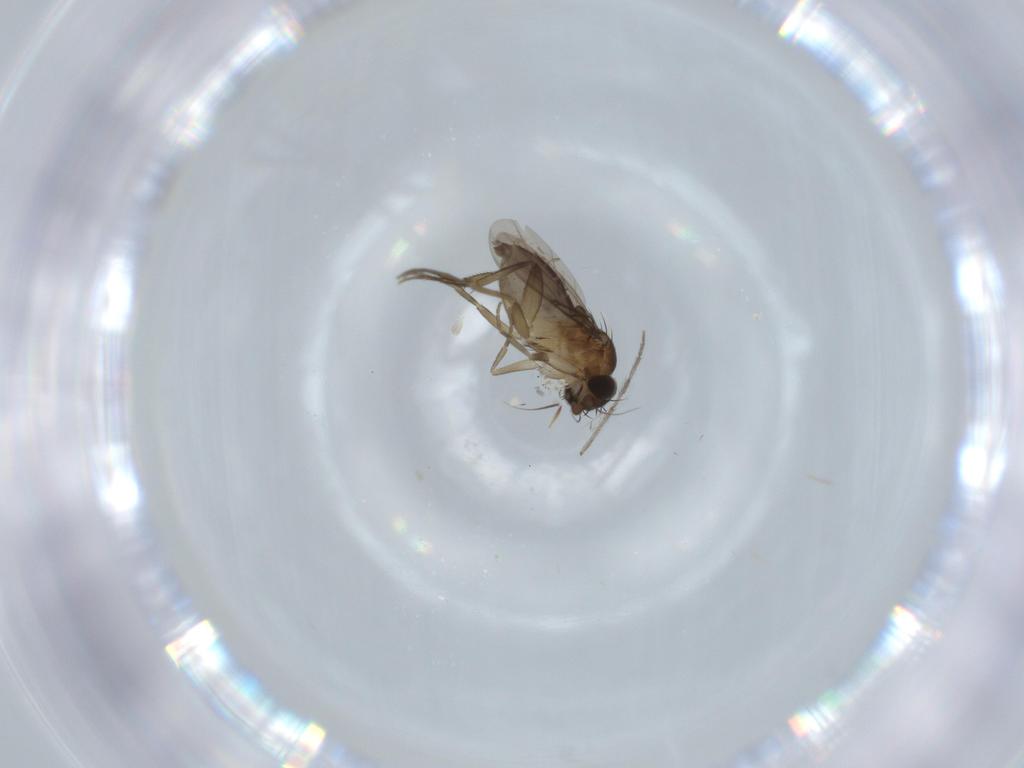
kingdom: Animalia
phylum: Arthropoda
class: Insecta
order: Diptera
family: Phoridae
